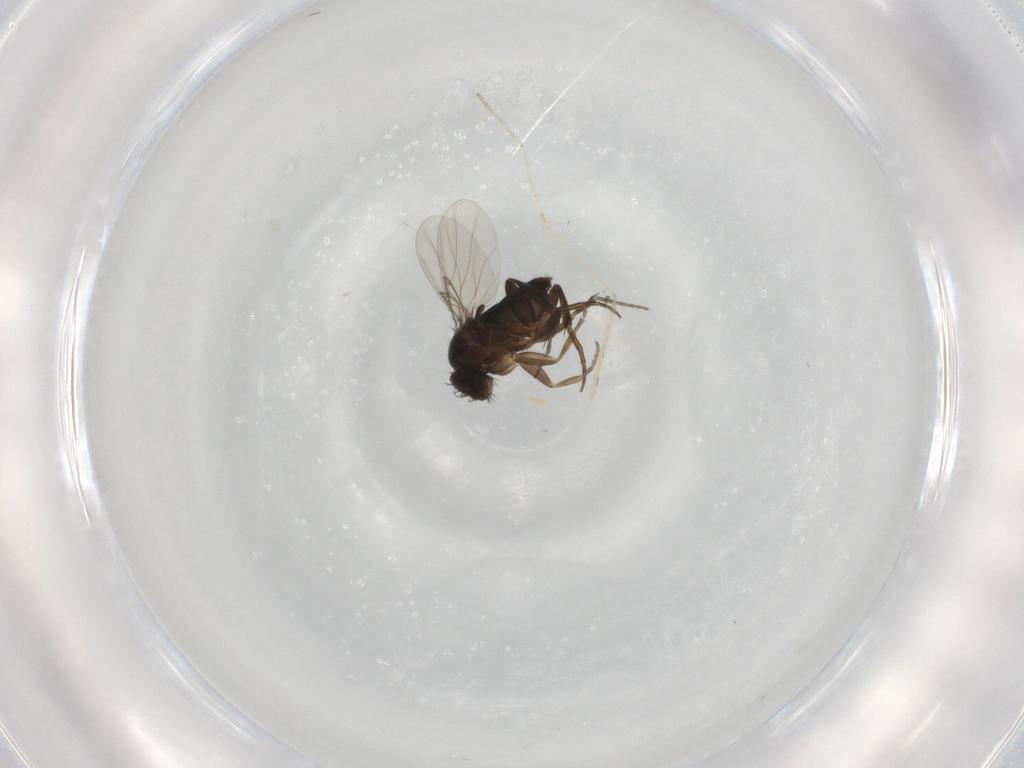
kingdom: Animalia
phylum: Arthropoda
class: Insecta
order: Diptera
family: Phoridae
